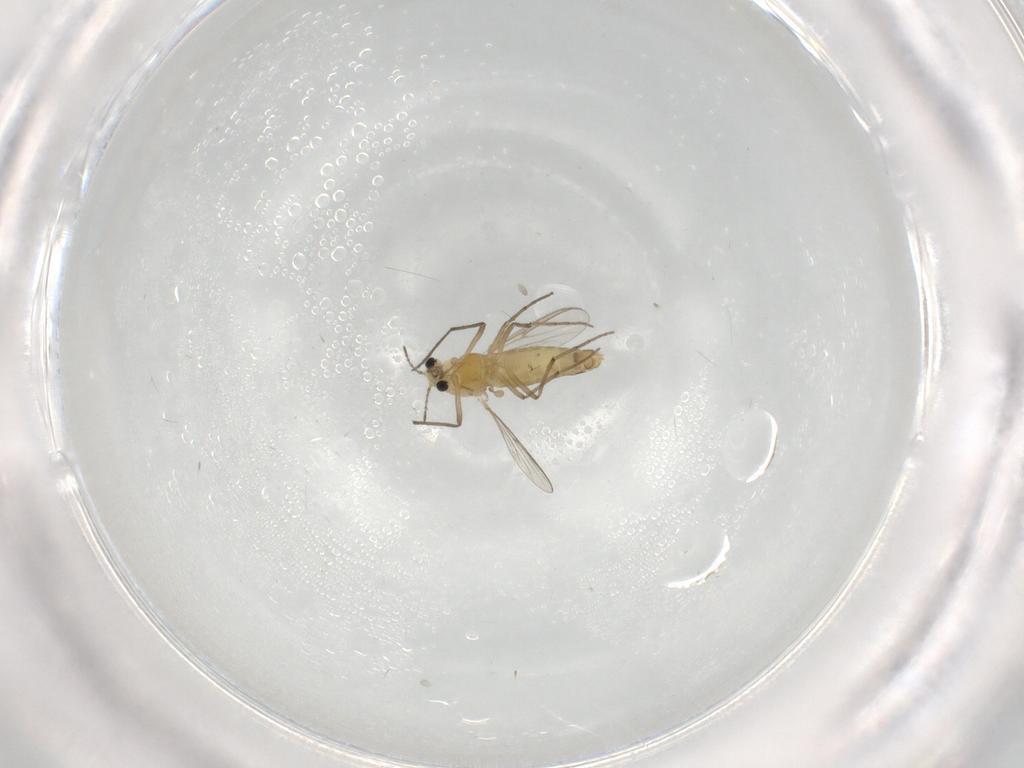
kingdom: Animalia
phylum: Arthropoda
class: Insecta
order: Diptera
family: Chironomidae
